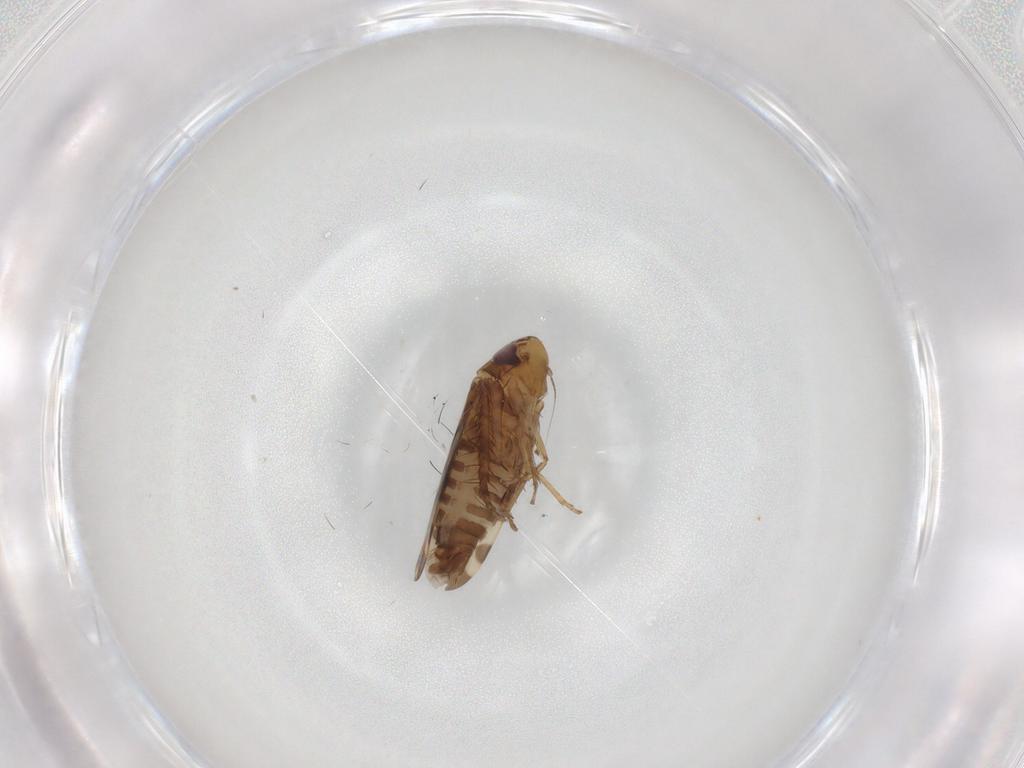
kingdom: Animalia
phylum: Arthropoda
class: Insecta
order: Hemiptera
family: Cicadellidae
